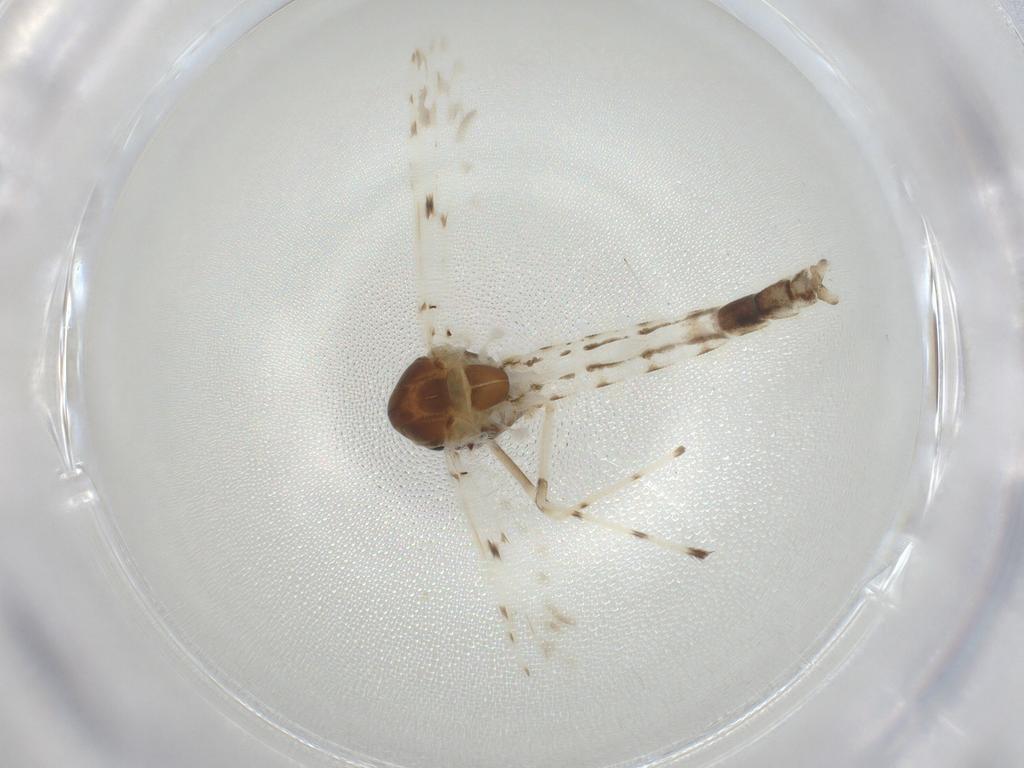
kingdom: Animalia
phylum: Arthropoda
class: Insecta
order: Diptera
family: Chironomidae
